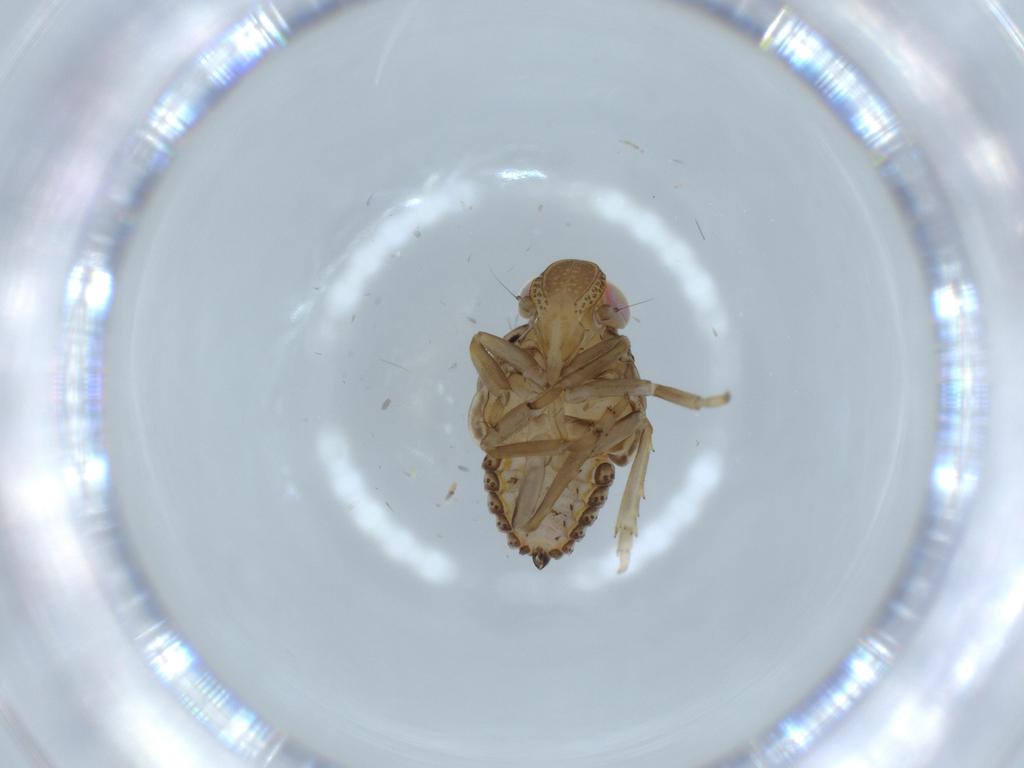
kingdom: Animalia
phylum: Arthropoda
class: Insecta
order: Hemiptera
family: Issidae
